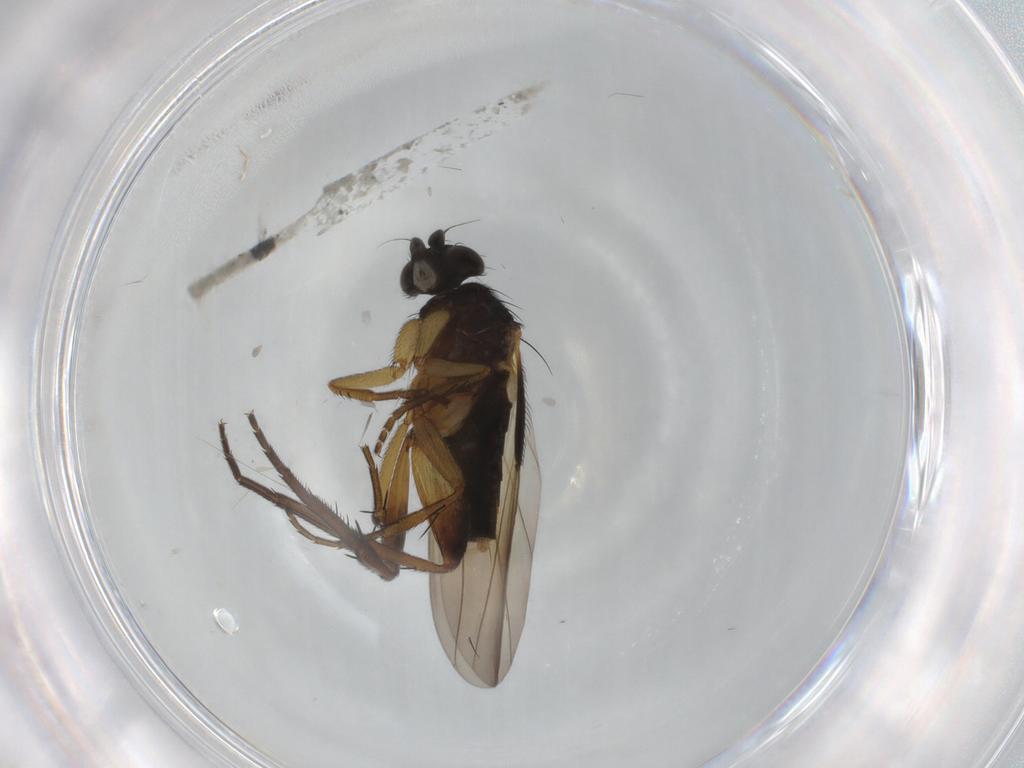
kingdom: Animalia
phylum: Arthropoda
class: Insecta
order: Diptera
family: Phoridae
